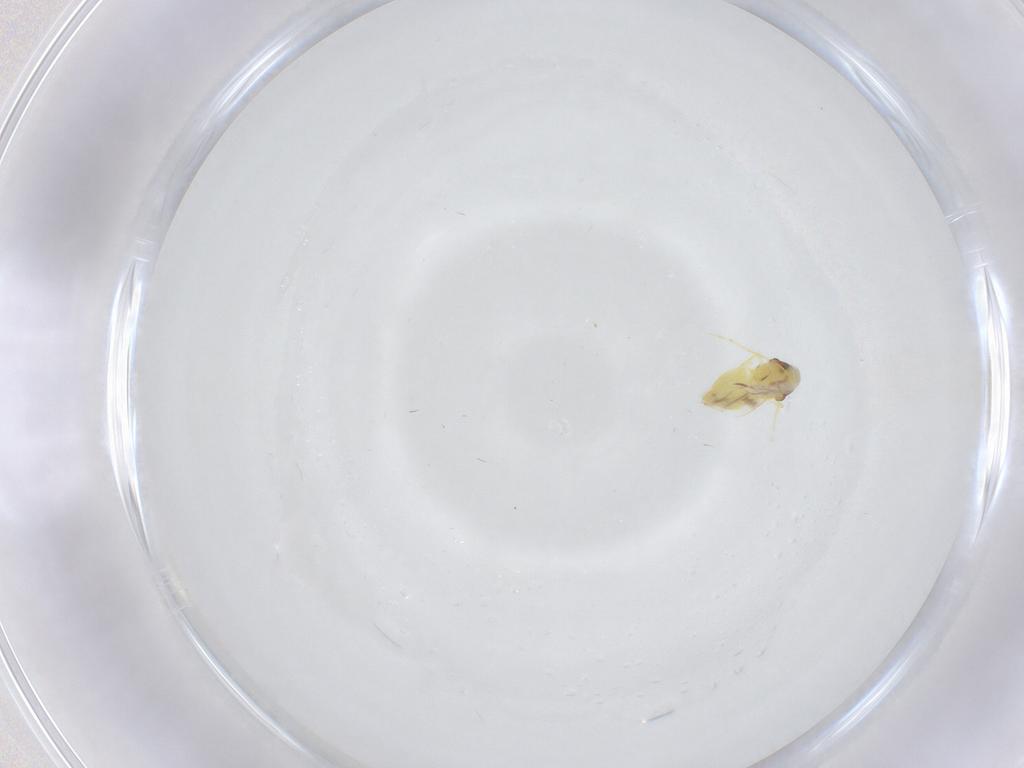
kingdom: Animalia
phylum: Arthropoda
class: Insecta
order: Hemiptera
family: Aleyrodidae
